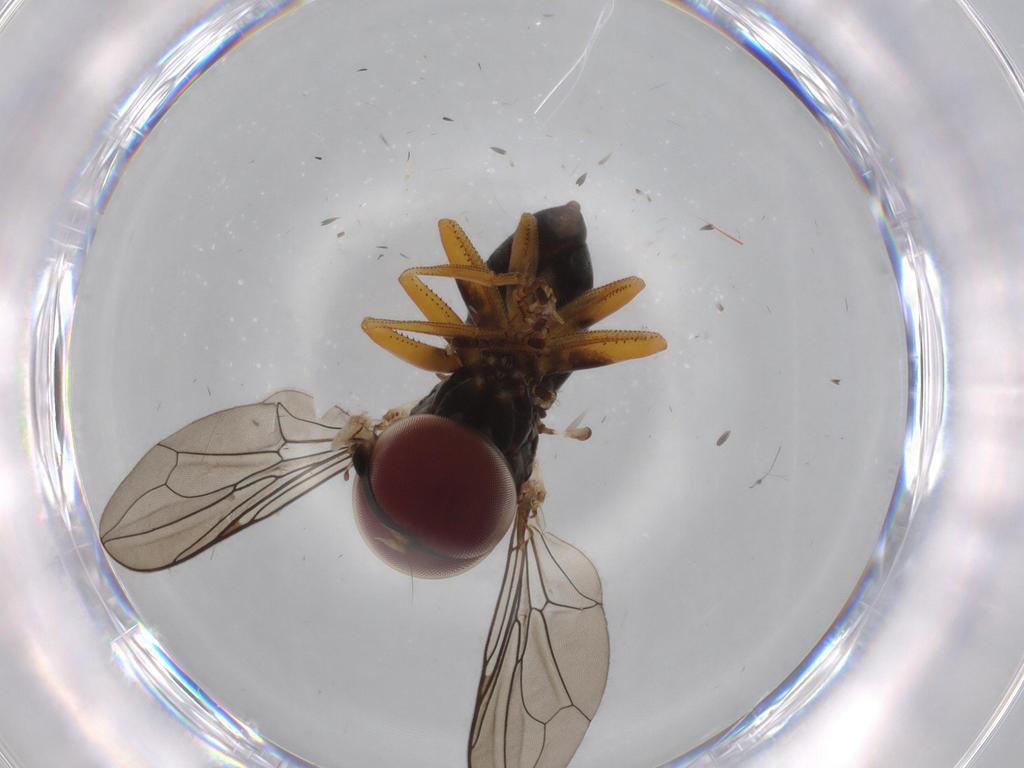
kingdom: Animalia
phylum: Arthropoda
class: Insecta
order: Diptera
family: Chironomidae
